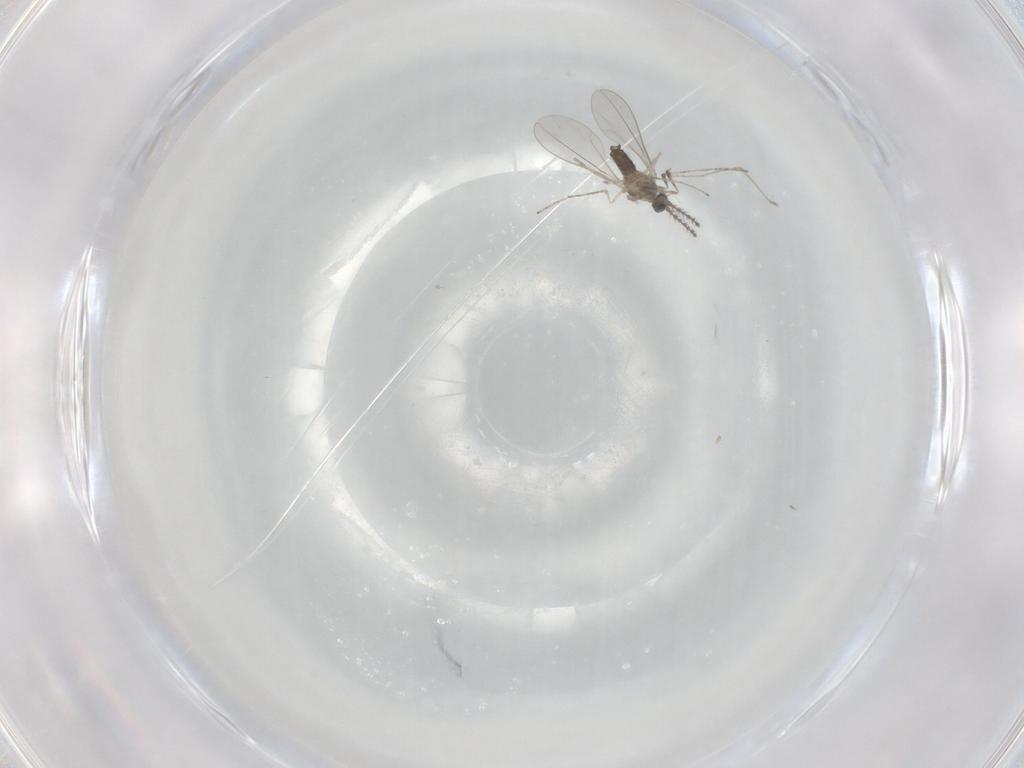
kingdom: Animalia
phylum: Arthropoda
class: Insecta
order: Diptera
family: Cecidomyiidae
